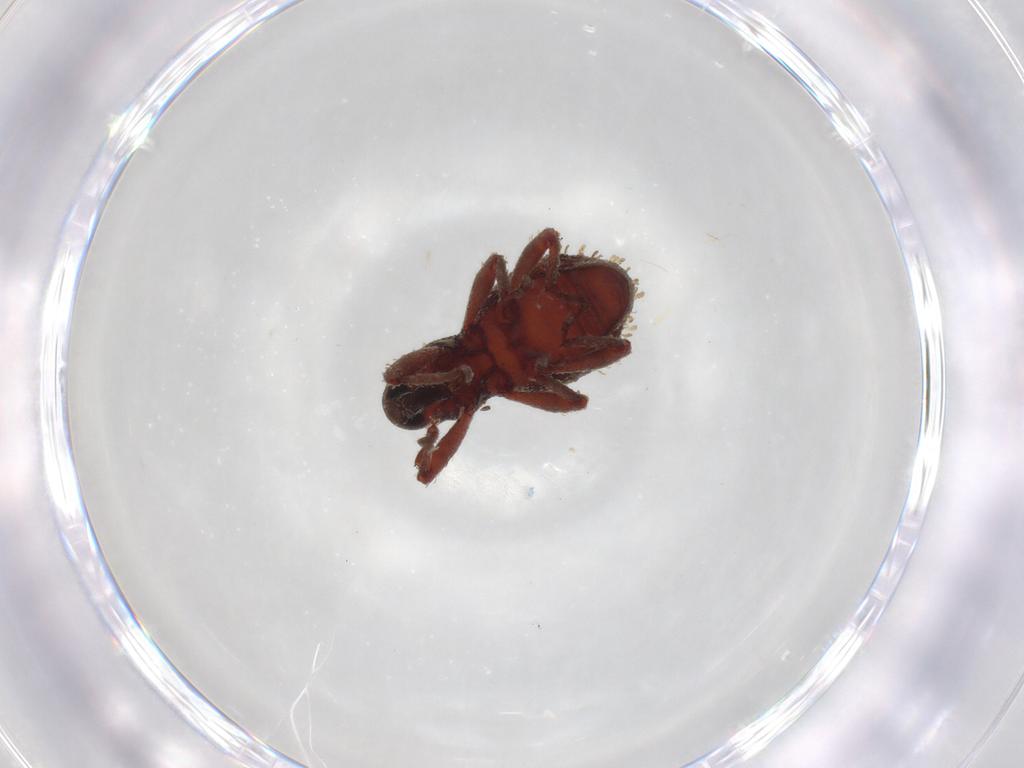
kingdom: Animalia
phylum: Arthropoda
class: Insecta
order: Coleoptera
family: Curculionidae
